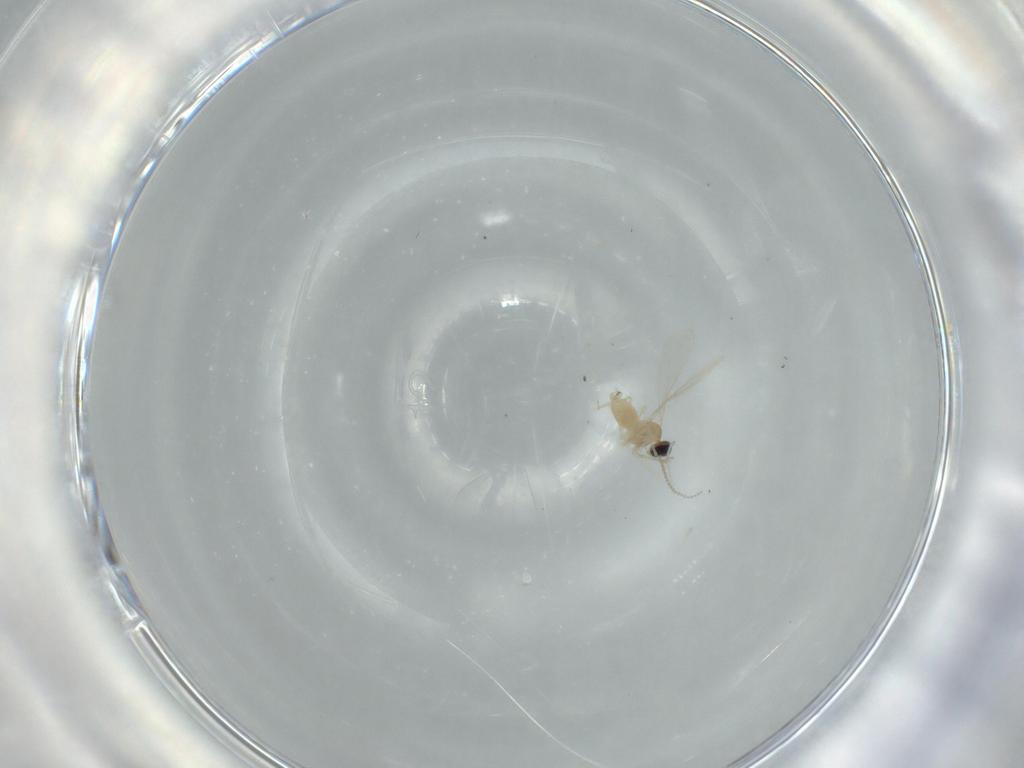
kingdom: Animalia
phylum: Arthropoda
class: Insecta
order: Diptera
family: Cecidomyiidae
